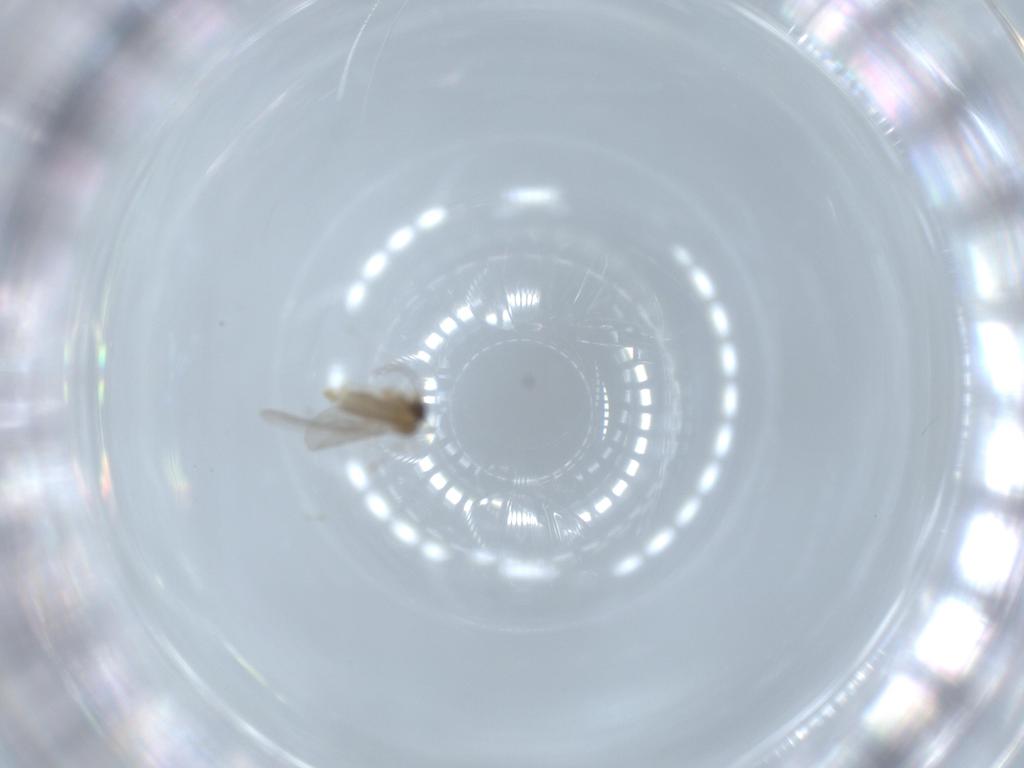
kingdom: Animalia
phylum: Arthropoda
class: Insecta
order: Diptera
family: Cecidomyiidae
